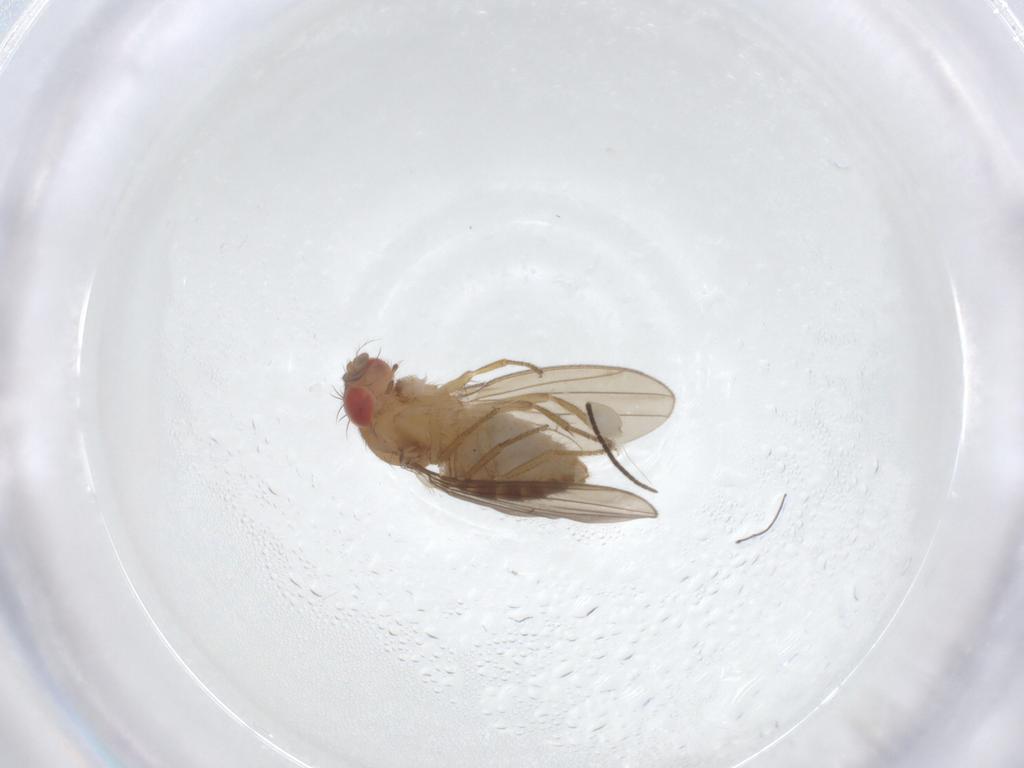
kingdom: Animalia
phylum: Arthropoda
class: Insecta
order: Diptera
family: Drosophilidae
